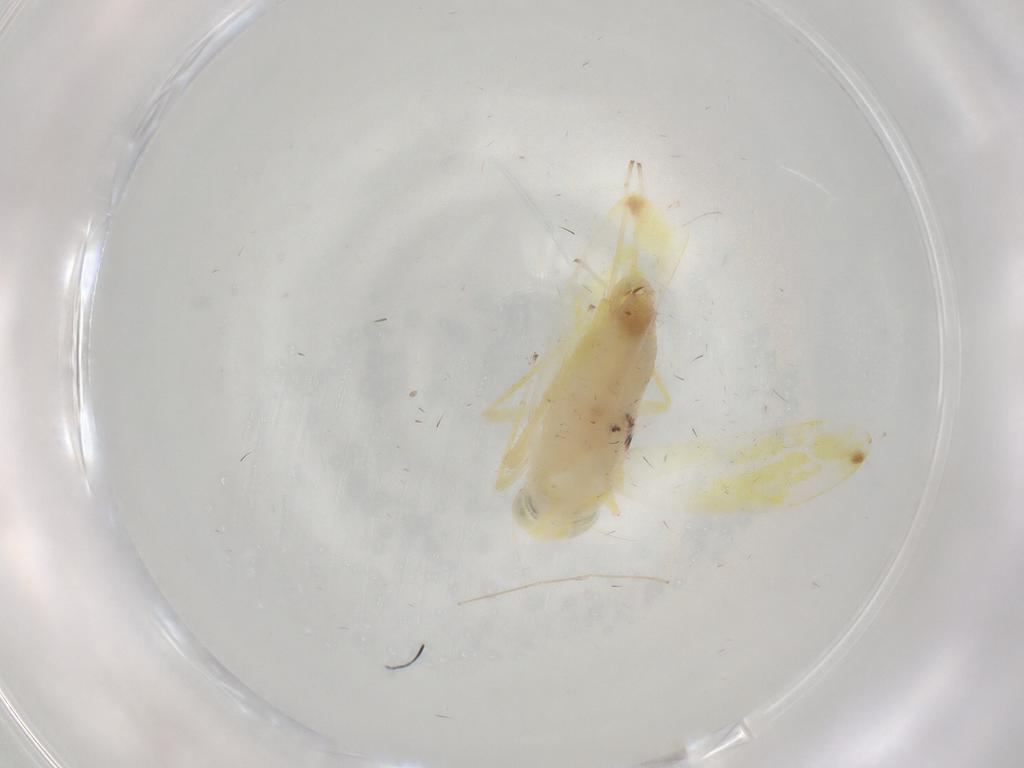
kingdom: Animalia
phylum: Arthropoda
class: Insecta
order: Hemiptera
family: Cicadellidae
